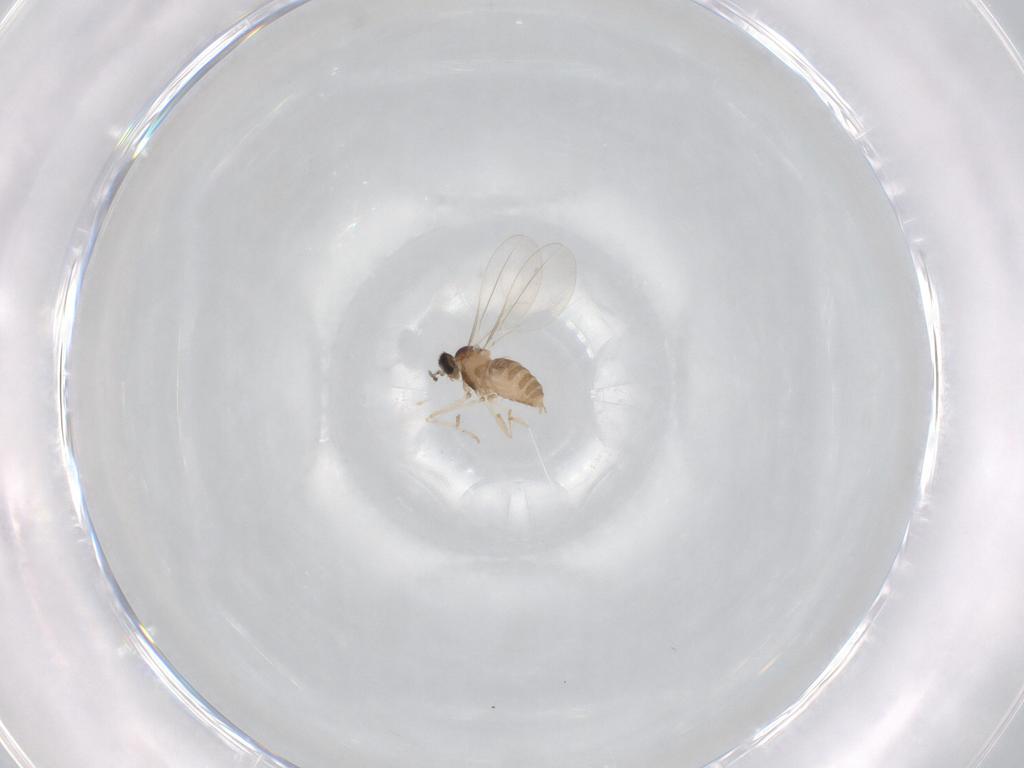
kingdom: Animalia
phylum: Arthropoda
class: Insecta
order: Diptera
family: Cecidomyiidae
